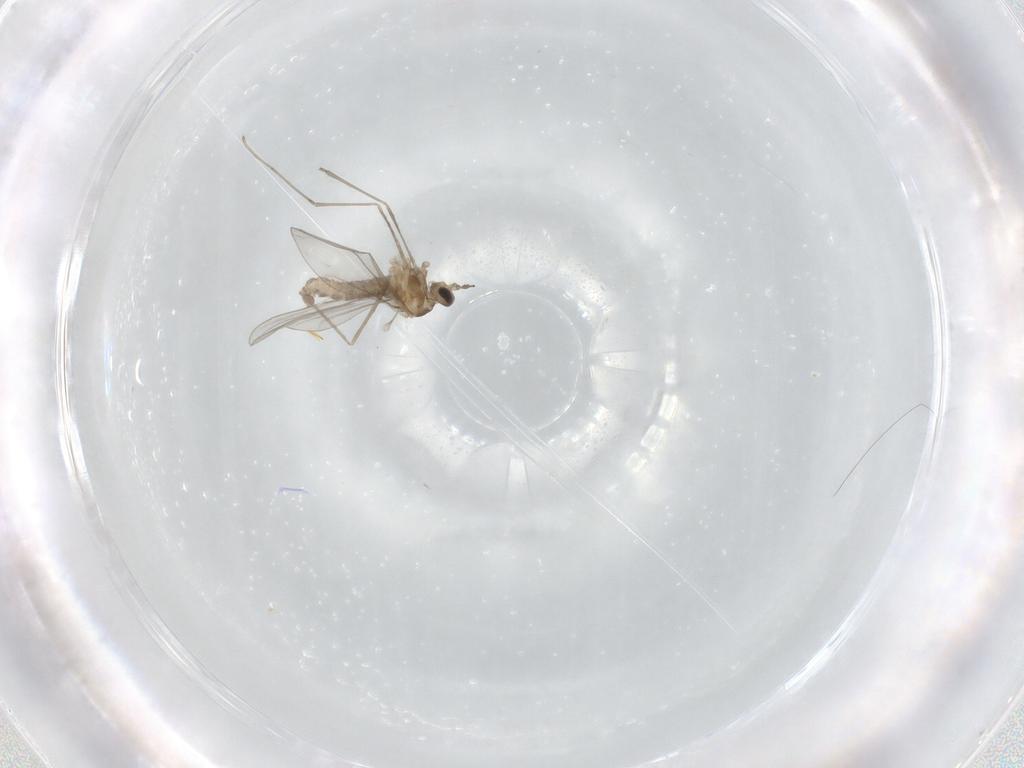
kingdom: Animalia
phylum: Arthropoda
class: Insecta
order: Diptera
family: Cecidomyiidae
